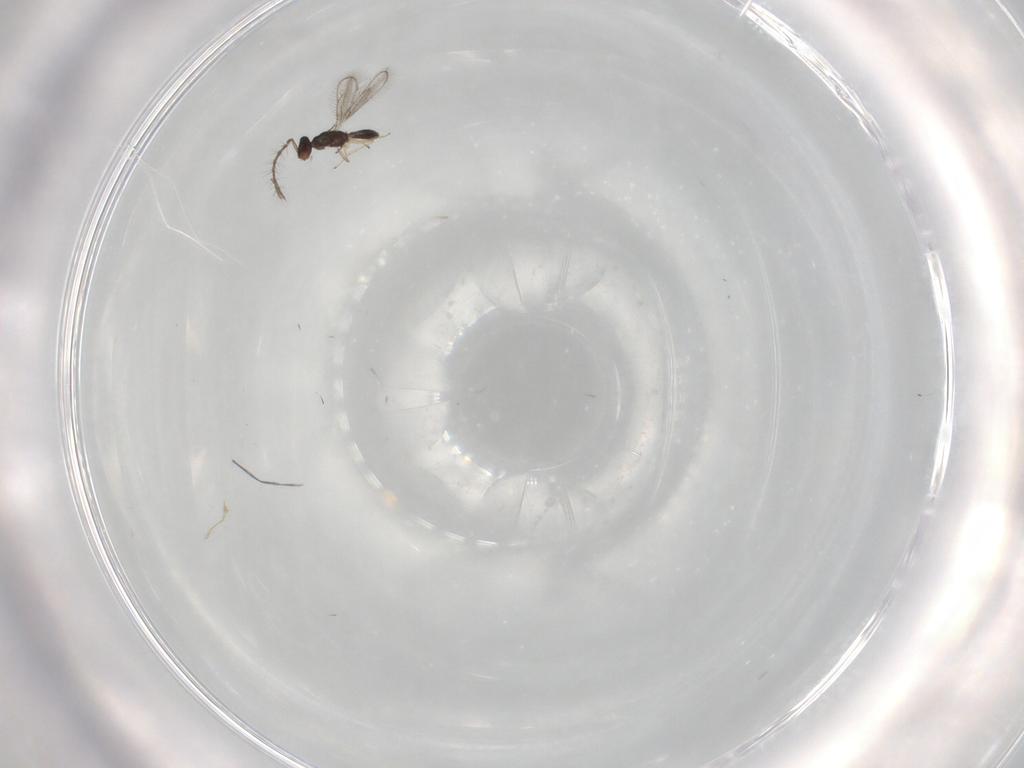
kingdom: Animalia
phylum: Arthropoda
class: Insecta
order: Hymenoptera
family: Pteromalidae
